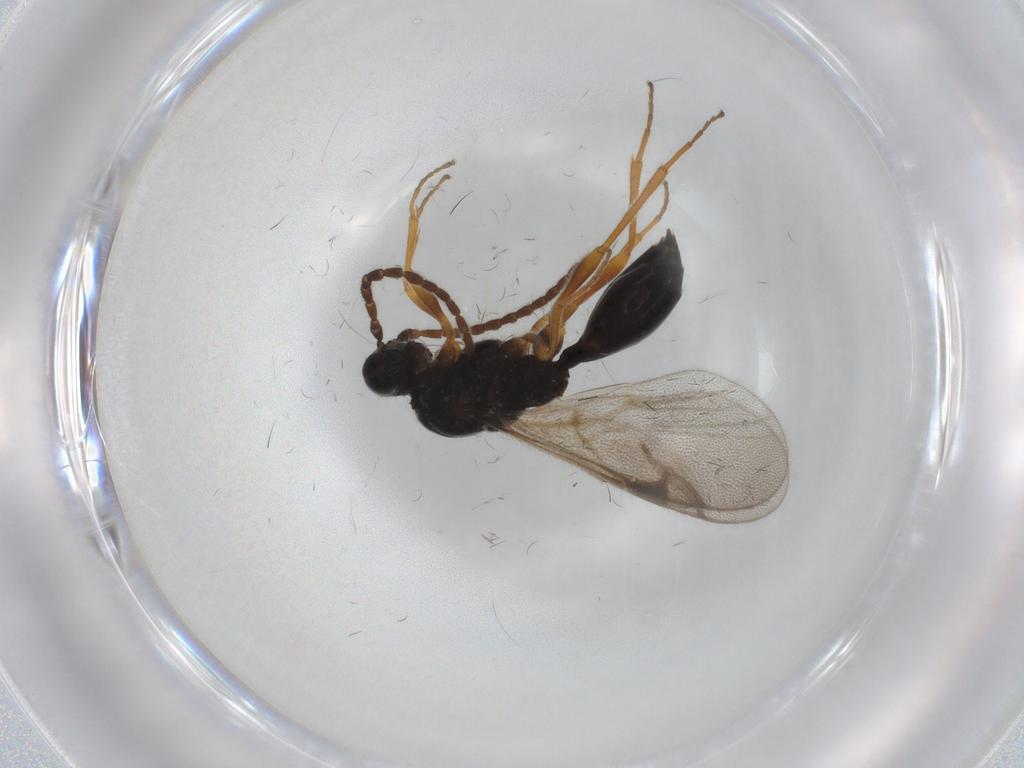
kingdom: Animalia
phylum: Arthropoda
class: Insecta
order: Hymenoptera
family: Proctotrupidae
